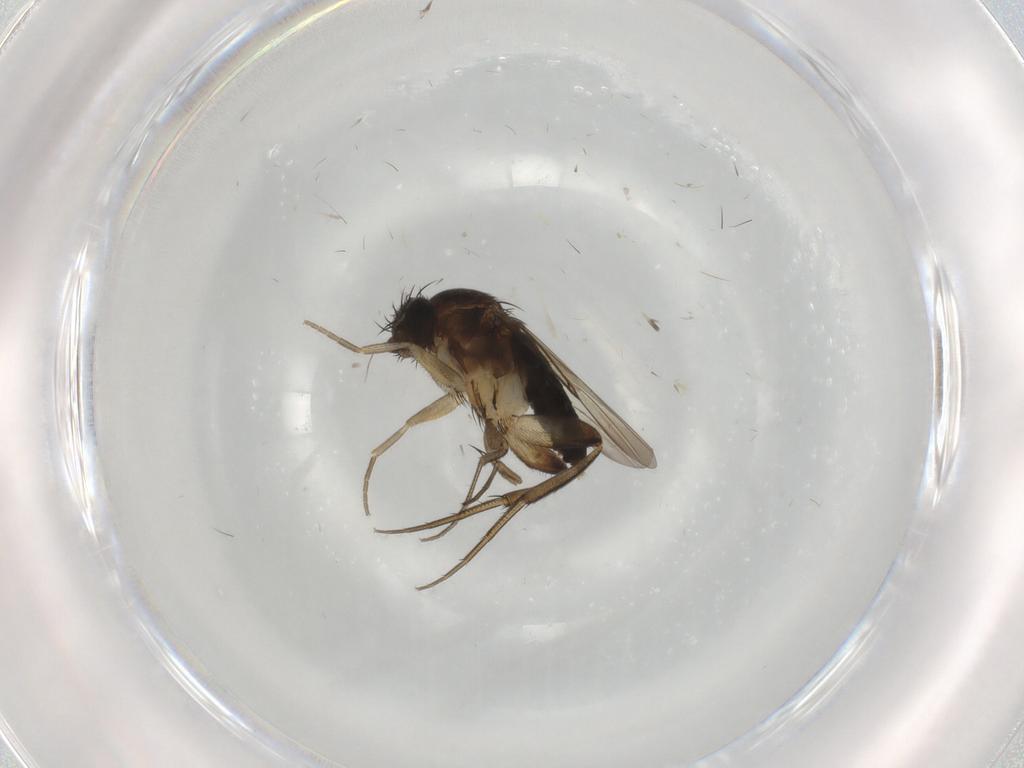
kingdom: Animalia
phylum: Arthropoda
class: Insecta
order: Diptera
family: Phoridae
